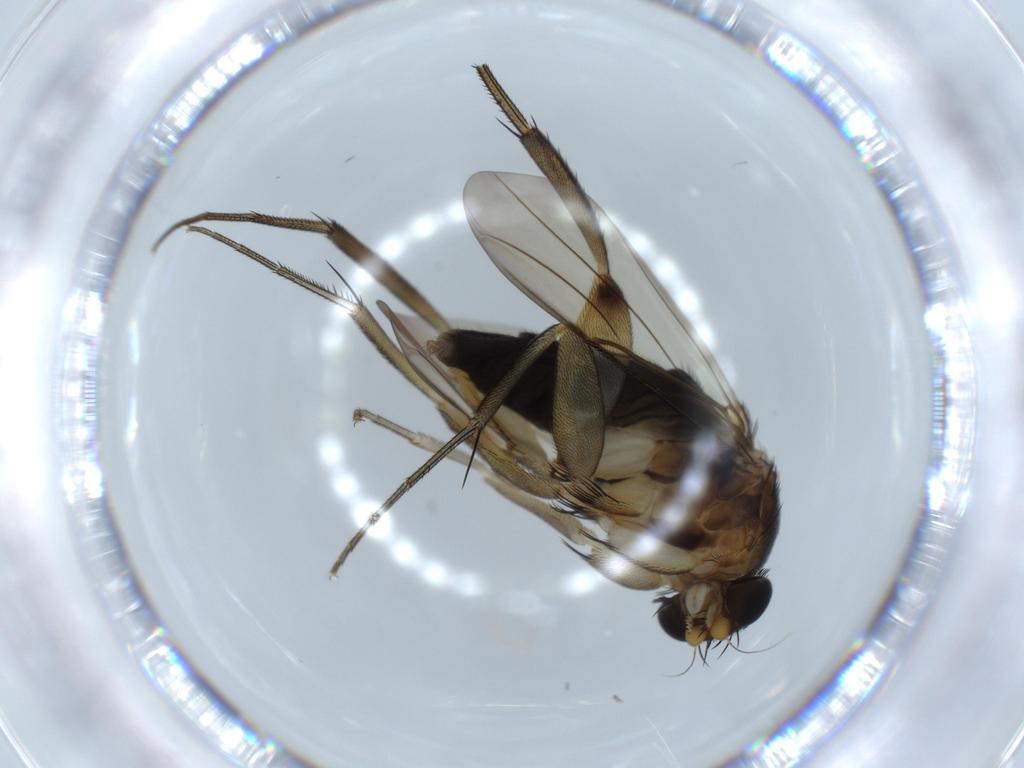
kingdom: Animalia
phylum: Arthropoda
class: Insecta
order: Diptera
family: Phoridae
